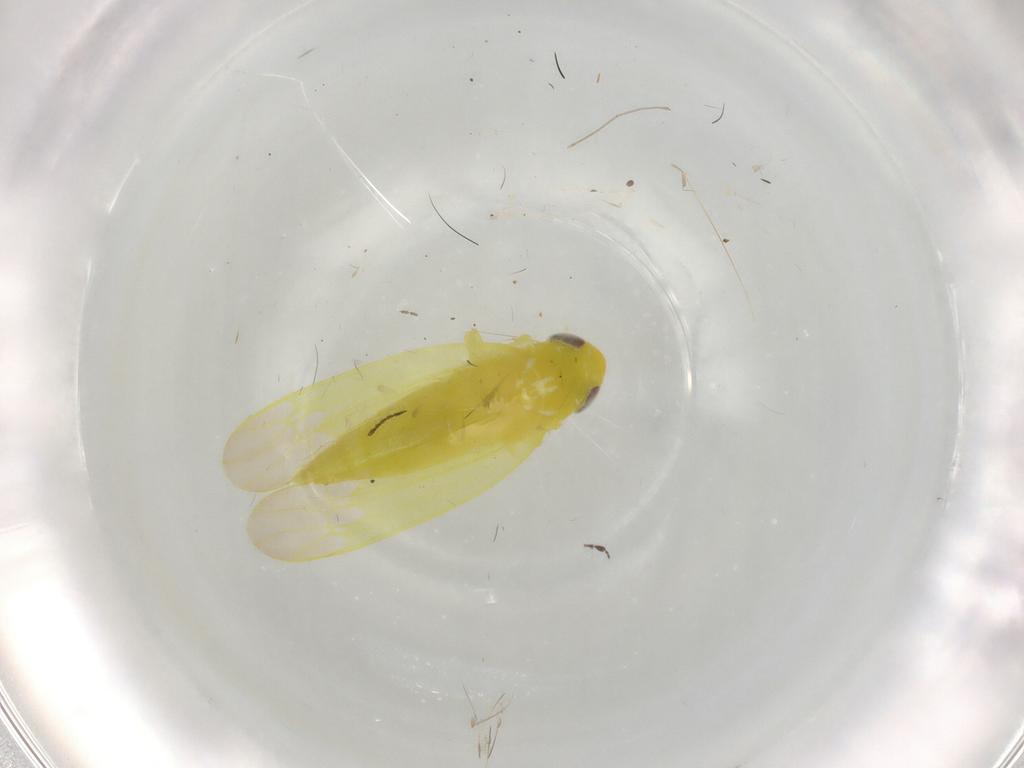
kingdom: Animalia
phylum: Arthropoda
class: Insecta
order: Hemiptera
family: Cicadellidae
